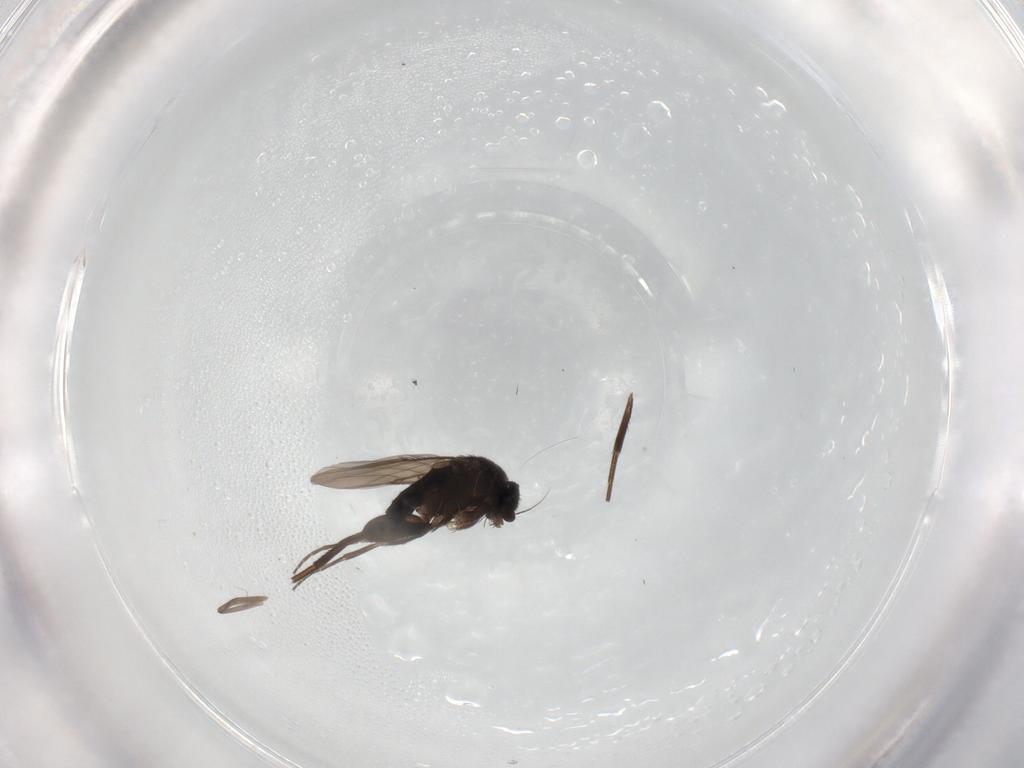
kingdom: Animalia
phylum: Arthropoda
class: Insecta
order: Diptera
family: Phoridae
